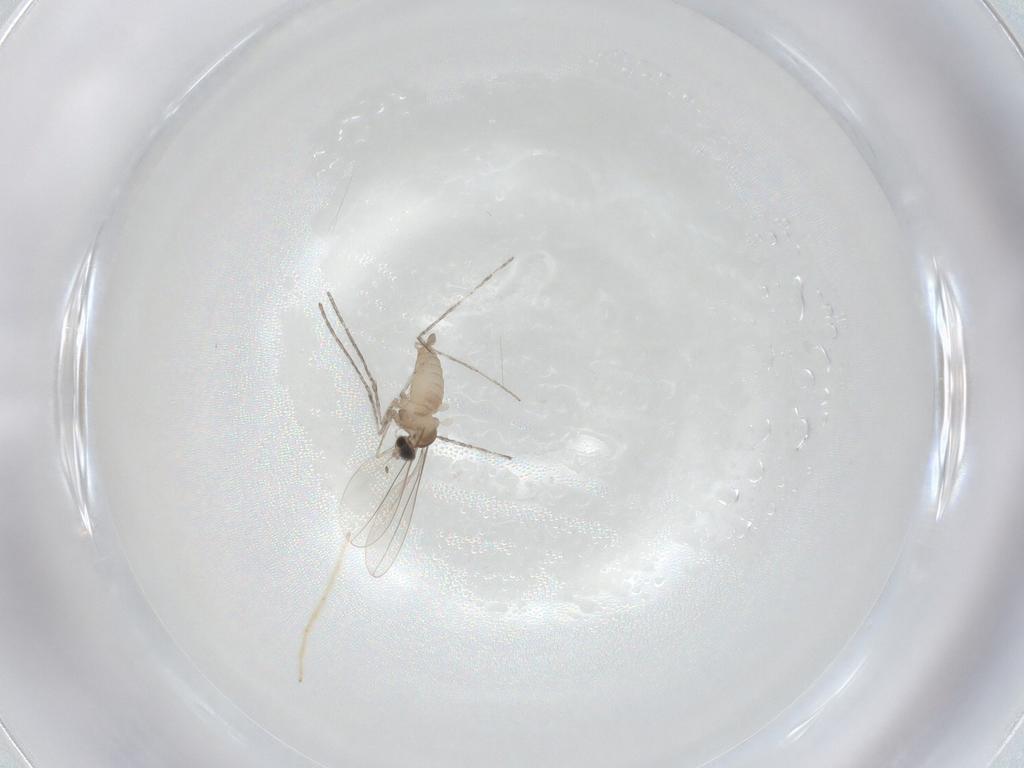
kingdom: Animalia
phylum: Arthropoda
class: Insecta
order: Diptera
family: Chironomidae
